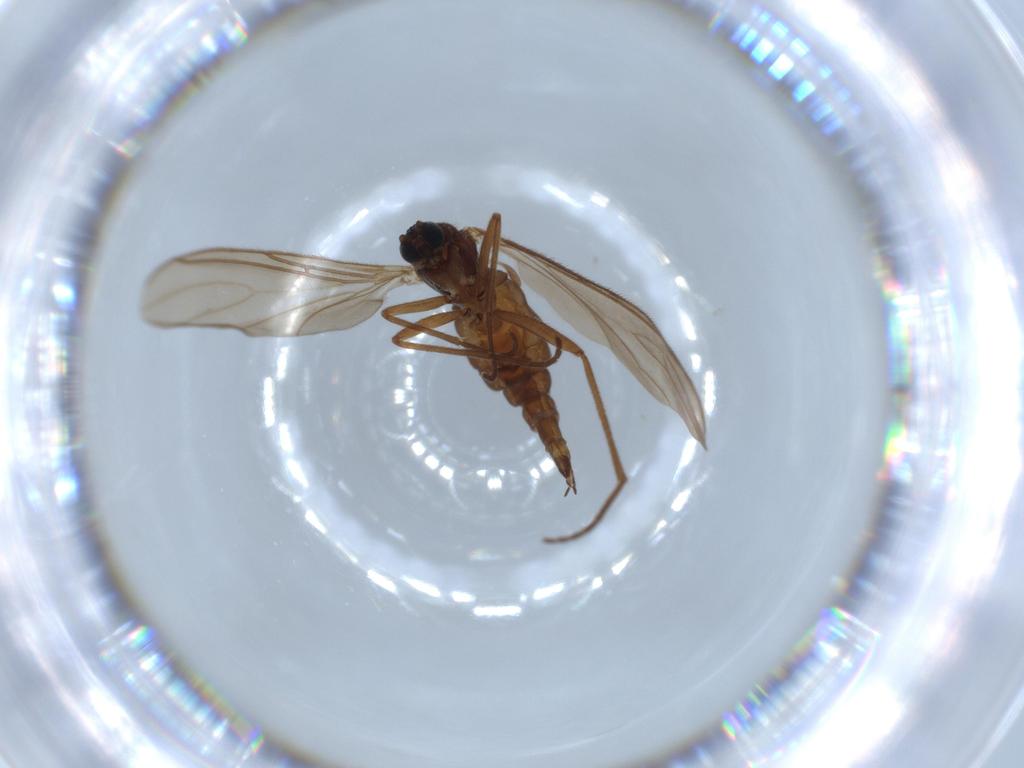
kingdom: Animalia
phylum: Arthropoda
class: Insecta
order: Diptera
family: Sciaridae
